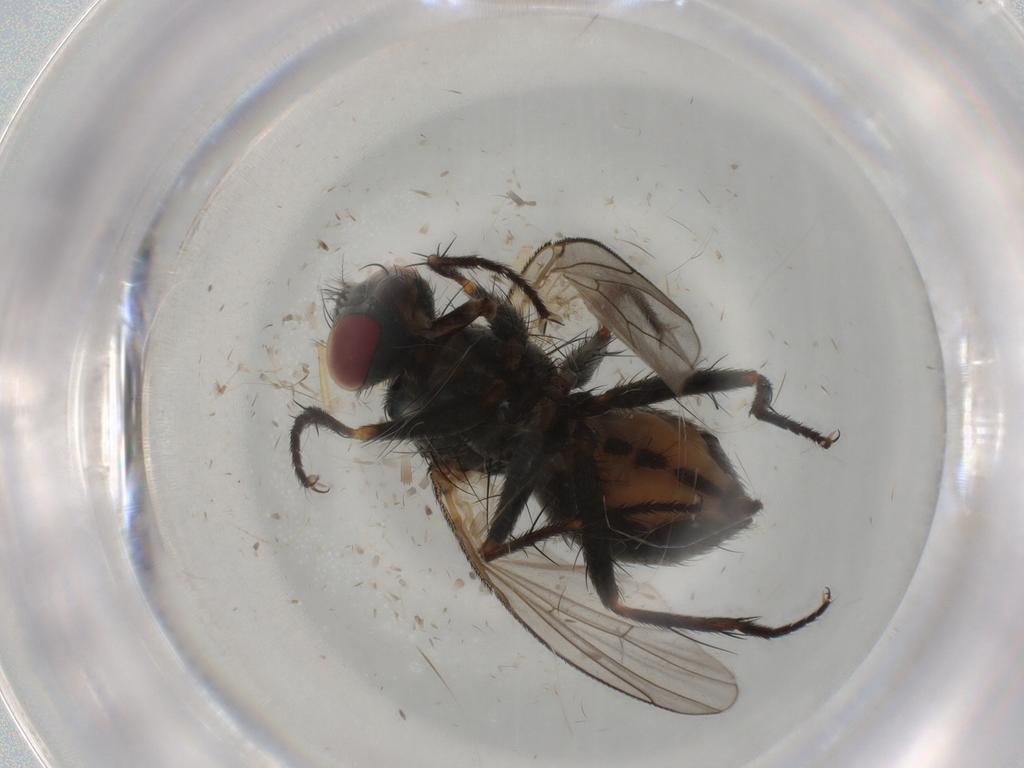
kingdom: Animalia
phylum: Arthropoda
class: Insecta
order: Diptera
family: Chaoboridae
